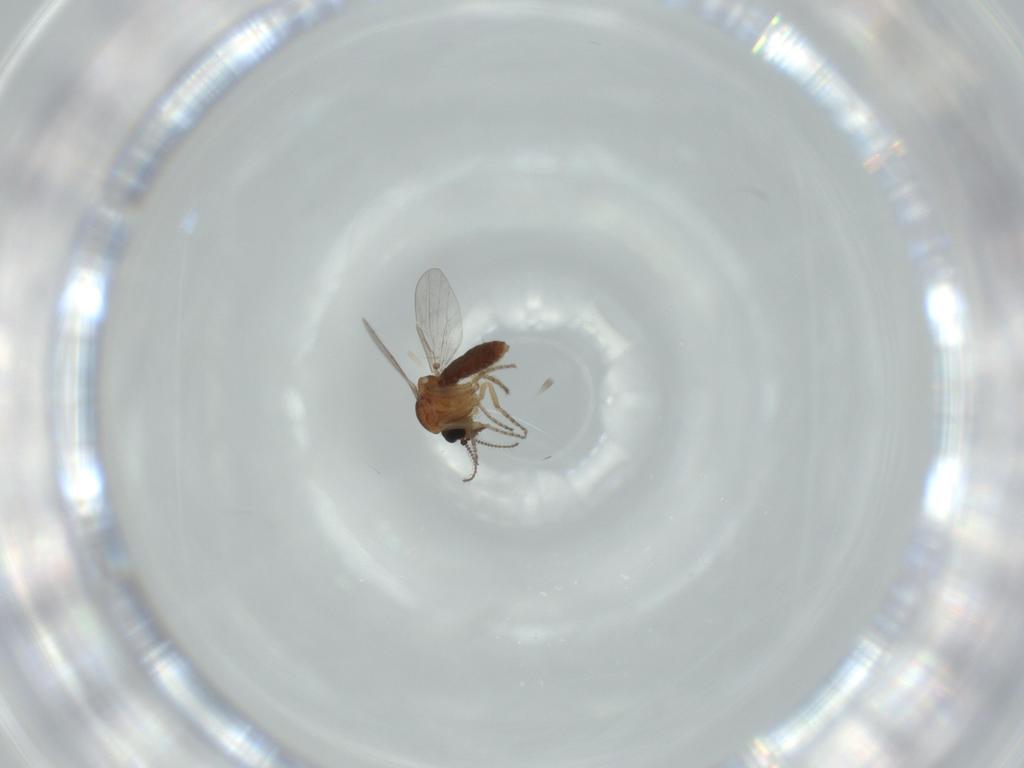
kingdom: Animalia
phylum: Arthropoda
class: Insecta
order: Diptera
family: Ceratopogonidae
